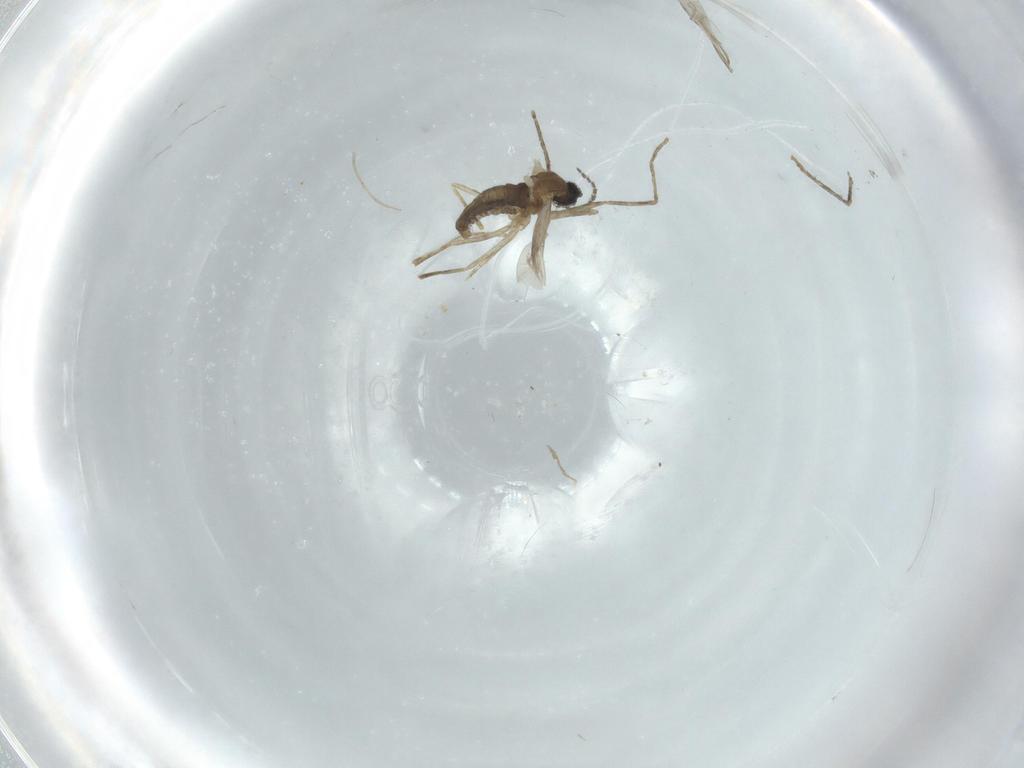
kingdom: Animalia
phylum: Arthropoda
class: Insecta
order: Diptera
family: Cecidomyiidae
